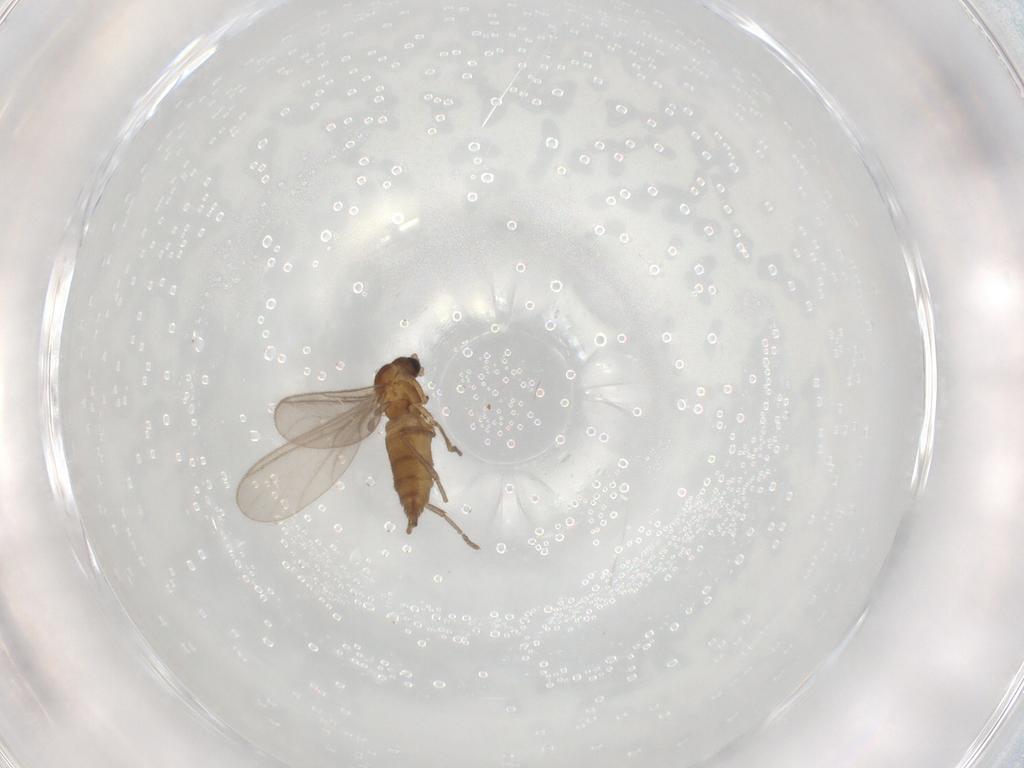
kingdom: Animalia
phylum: Arthropoda
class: Insecta
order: Diptera
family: Sciaridae
